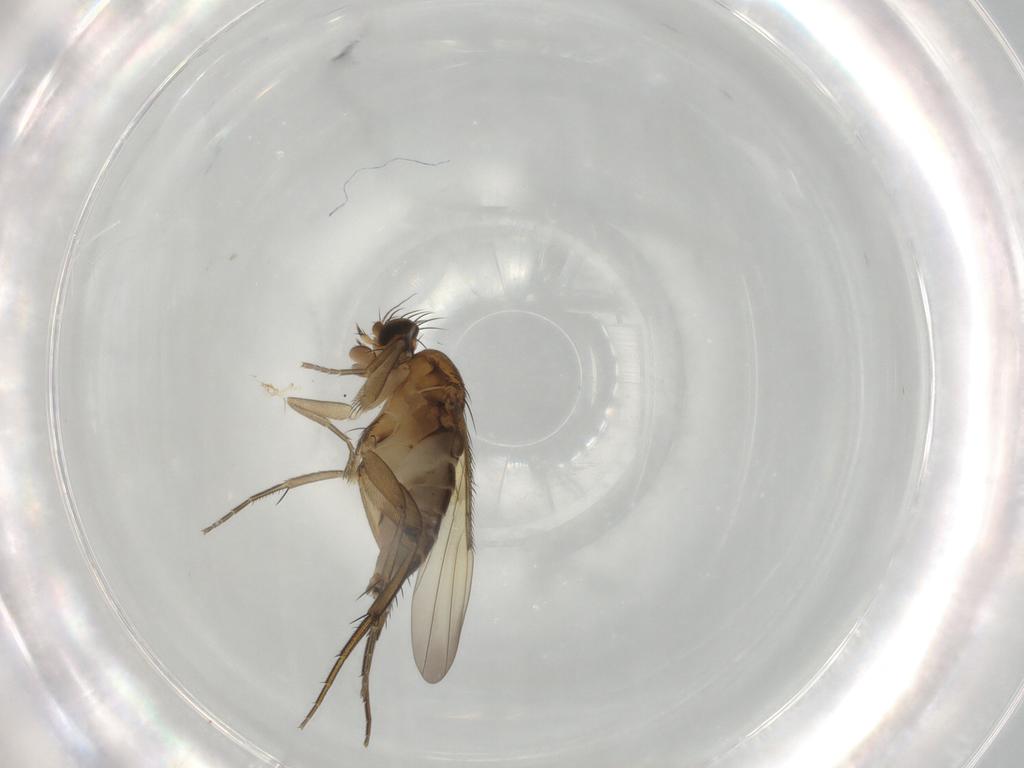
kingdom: Animalia
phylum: Arthropoda
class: Insecta
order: Diptera
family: Phoridae
